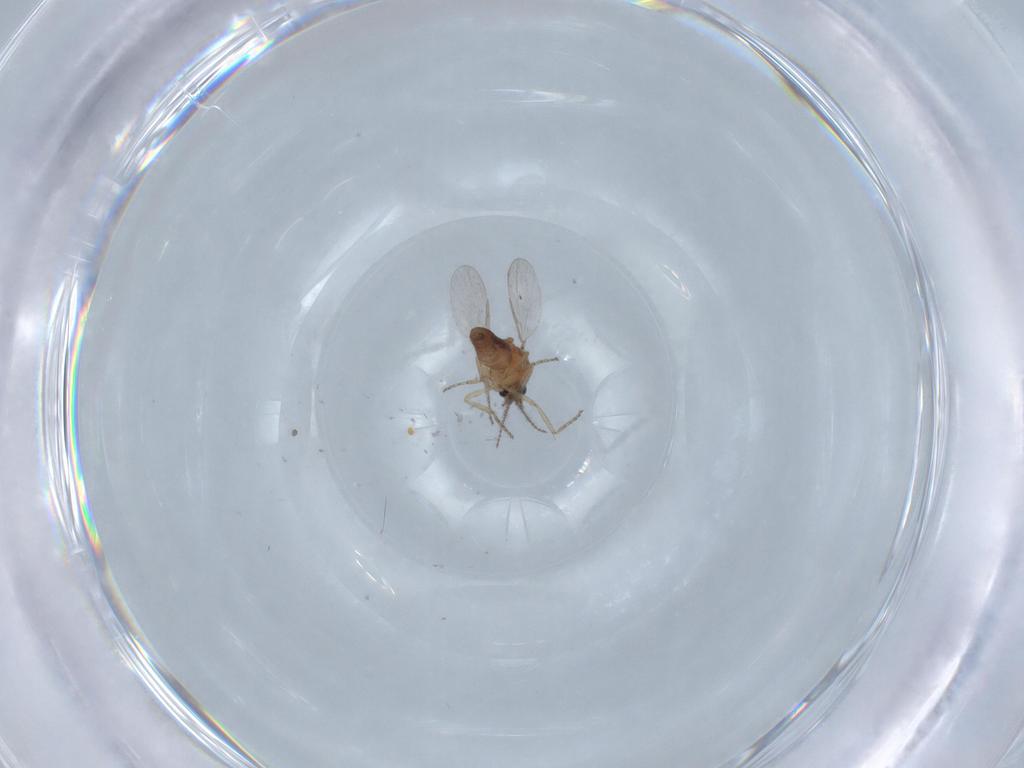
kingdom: Animalia
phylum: Arthropoda
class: Insecta
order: Diptera
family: Ceratopogonidae
